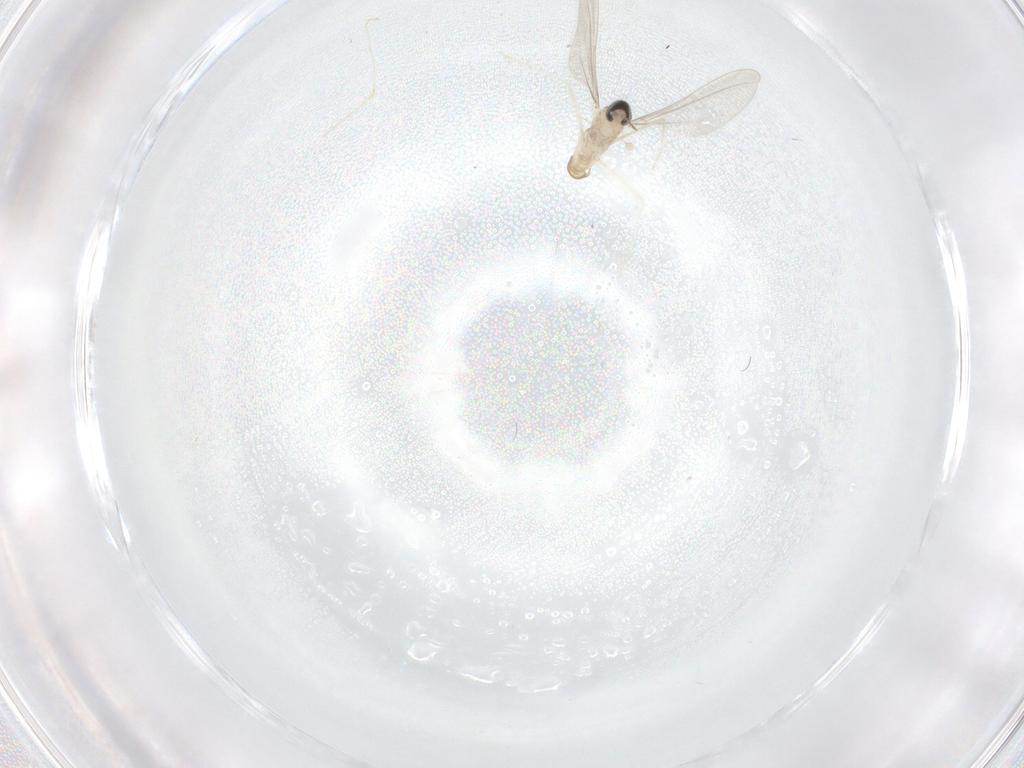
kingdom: Animalia
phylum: Arthropoda
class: Insecta
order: Diptera
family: Cecidomyiidae
